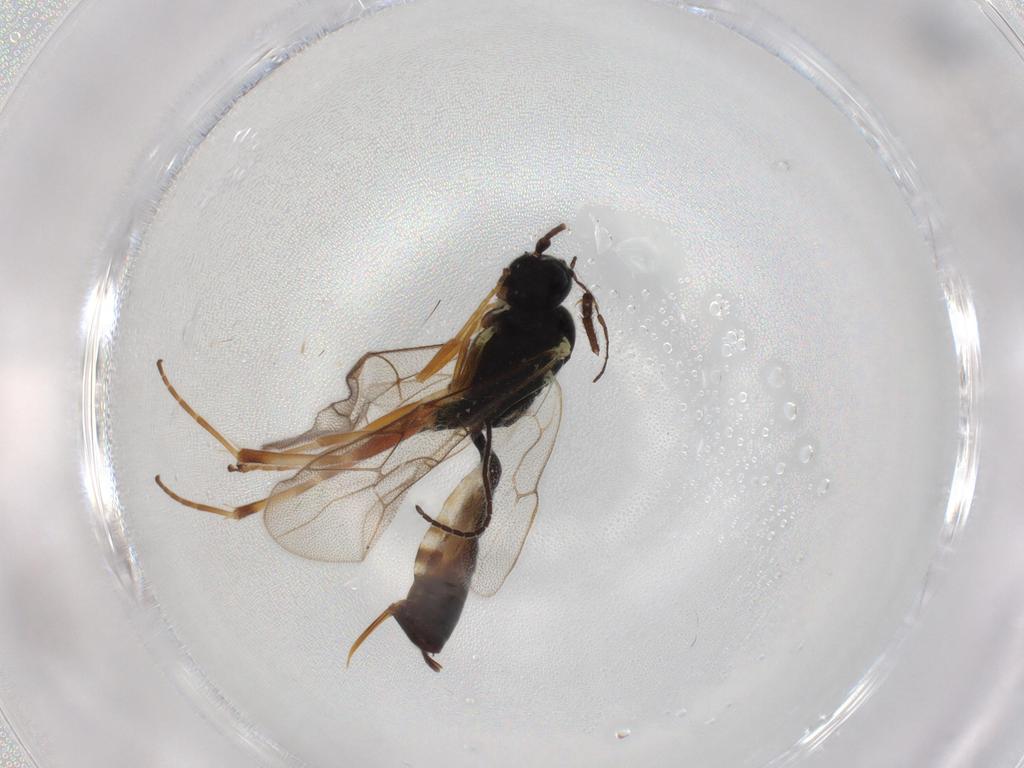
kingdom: Animalia
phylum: Arthropoda
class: Insecta
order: Hymenoptera
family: Ichneumonidae
